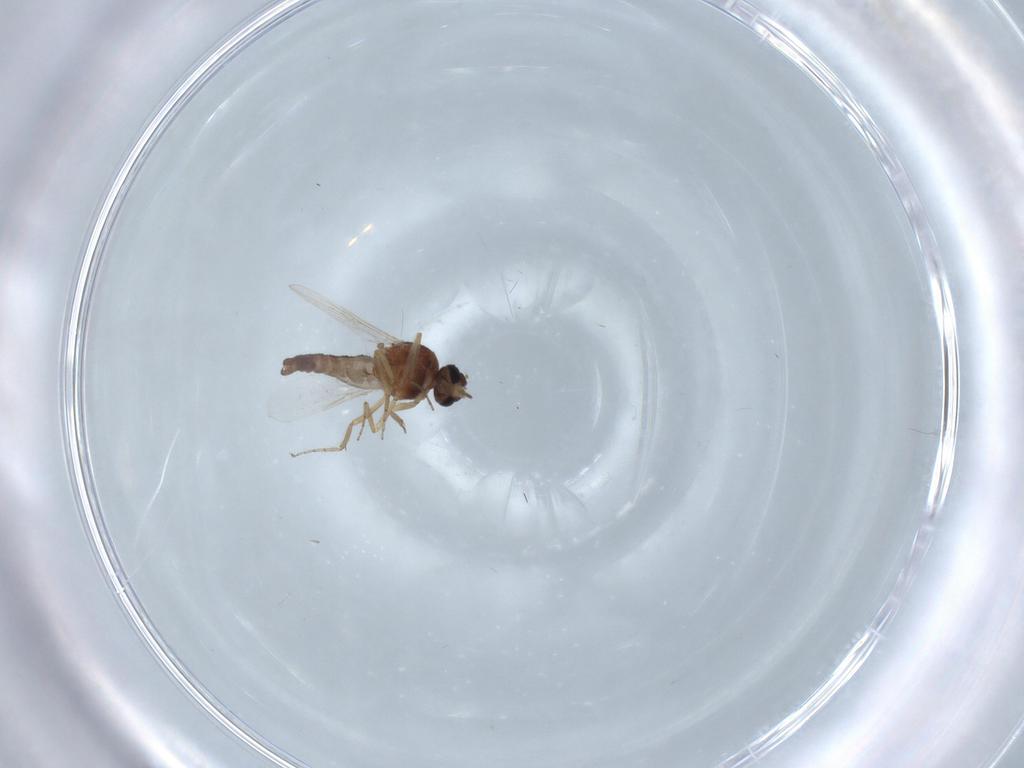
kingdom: Animalia
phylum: Arthropoda
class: Insecta
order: Diptera
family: Ceratopogonidae
